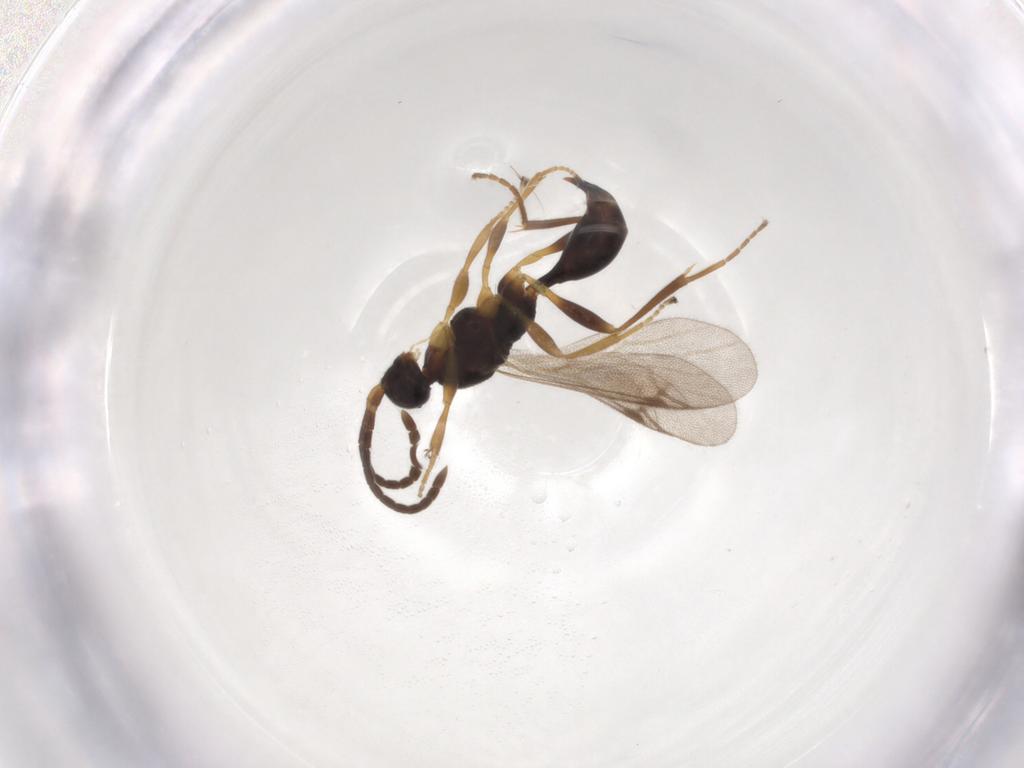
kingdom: Animalia
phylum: Arthropoda
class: Insecta
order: Hymenoptera
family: Proctotrupidae
